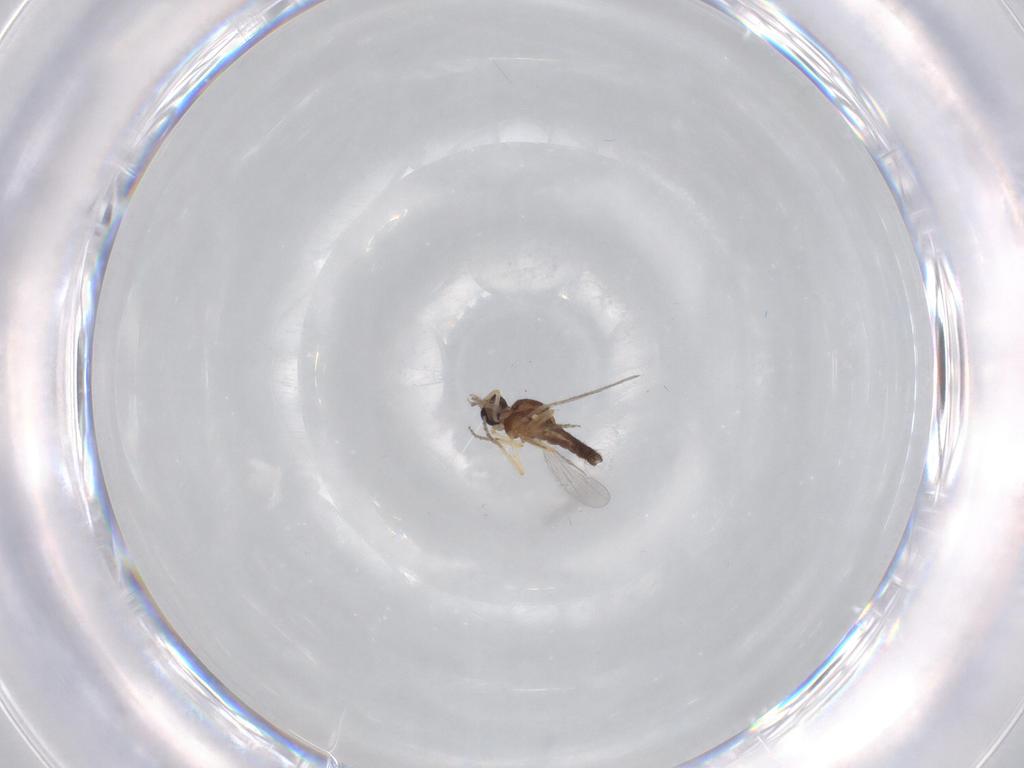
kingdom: Animalia
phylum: Arthropoda
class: Insecta
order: Diptera
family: Ceratopogonidae
